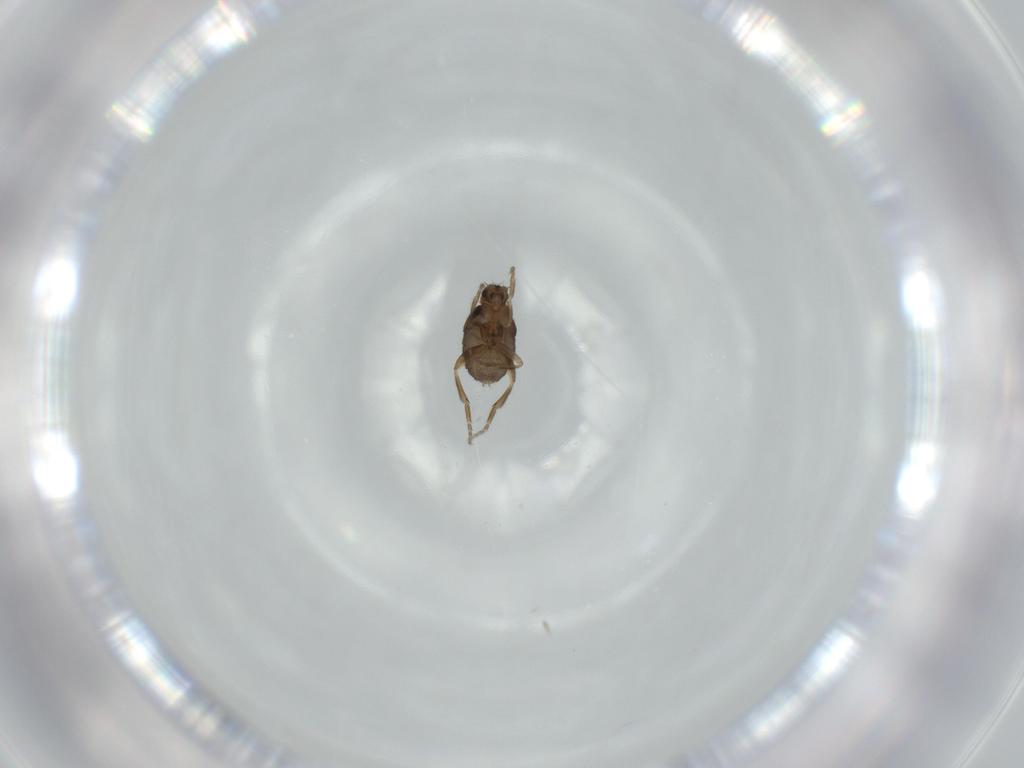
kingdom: Animalia
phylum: Arthropoda
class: Insecta
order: Diptera
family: Phoridae
